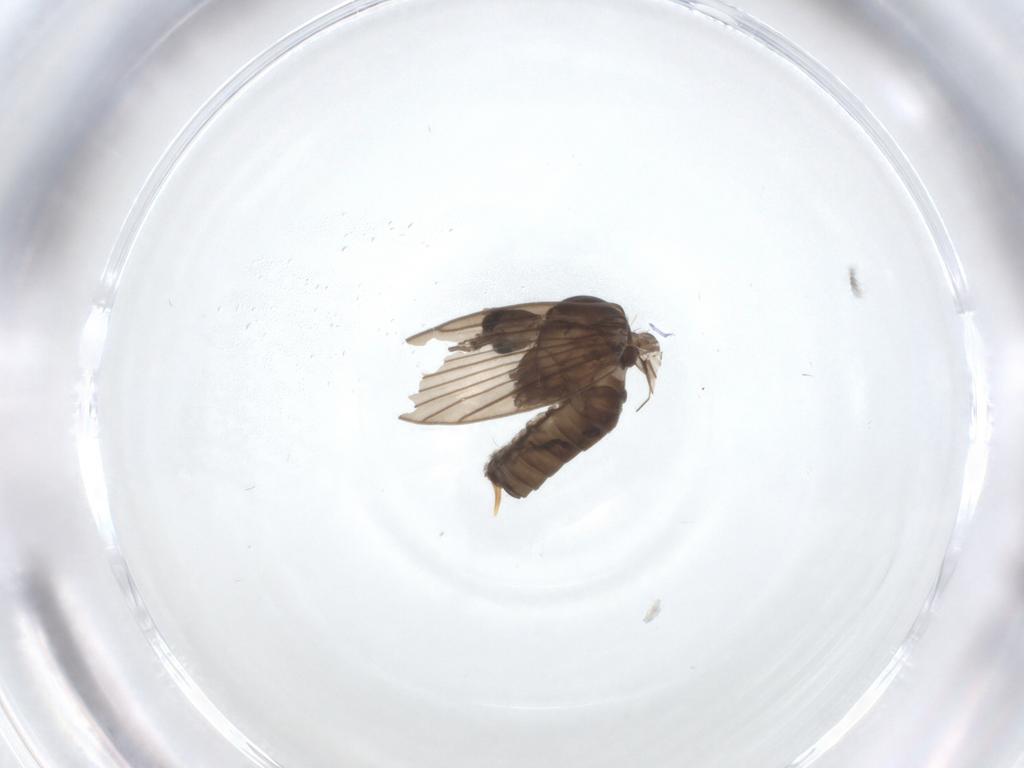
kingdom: Animalia
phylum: Arthropoda
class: Insecta
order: Diptera
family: Psychodidae
